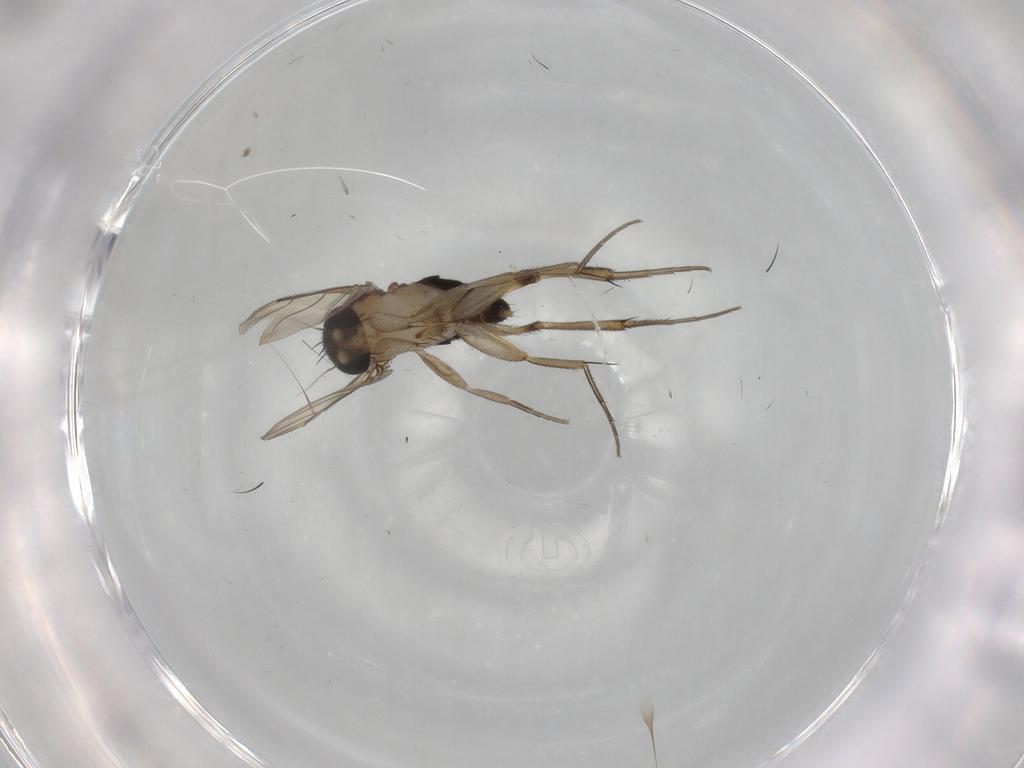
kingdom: Animalia
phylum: Arthropoda
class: Insecta
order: Diptera
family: Phoridae
